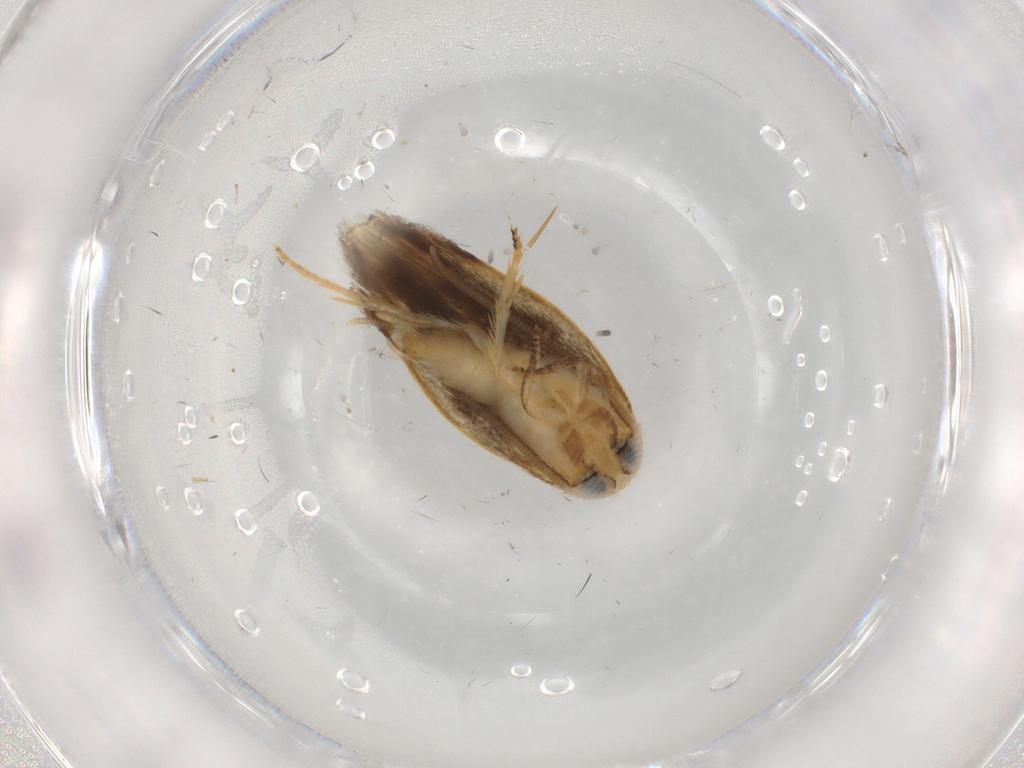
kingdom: Animalia
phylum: Arthropoda
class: Insecta
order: Lepidoptera
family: Opostegidae
